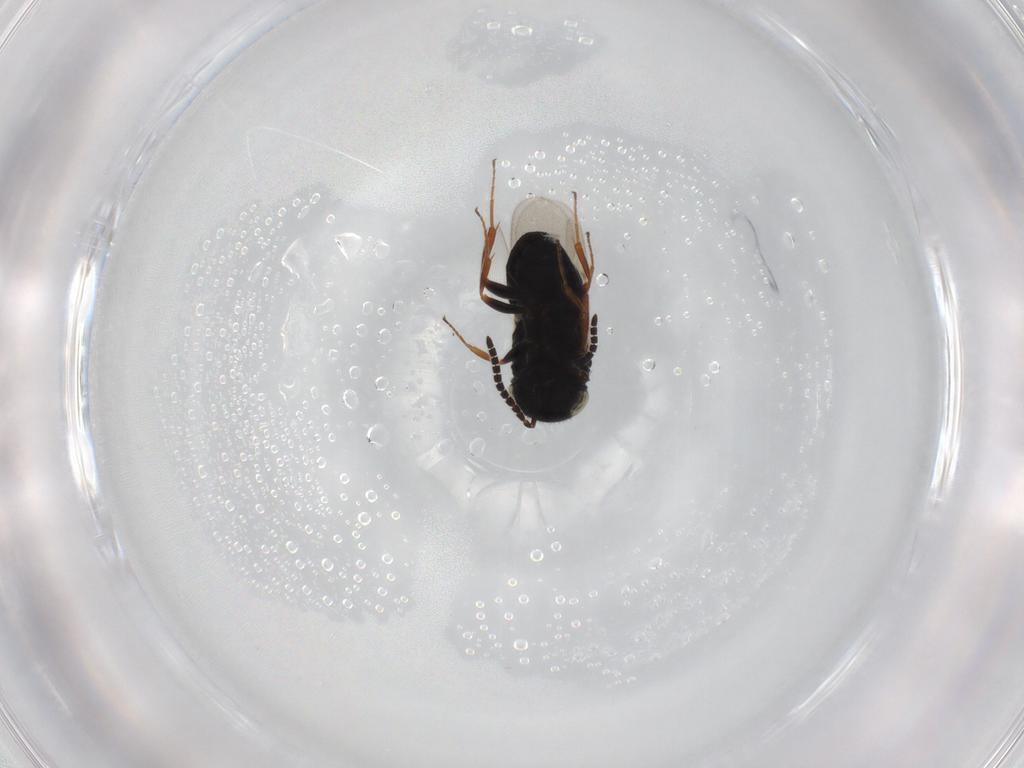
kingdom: Animalia
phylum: Arthropoda
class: Insecta
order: Hymenoptera
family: Scelionidae
